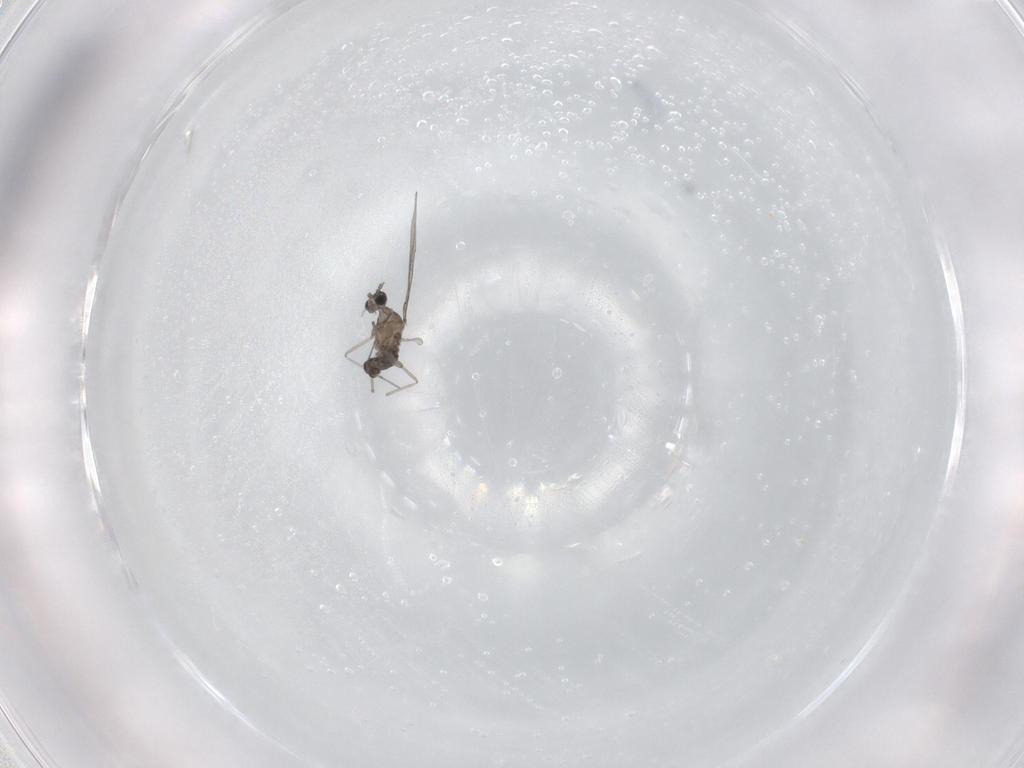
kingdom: Animalia
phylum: Arthropoda
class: Insecta
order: Diptera
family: Cecidomyiidae
